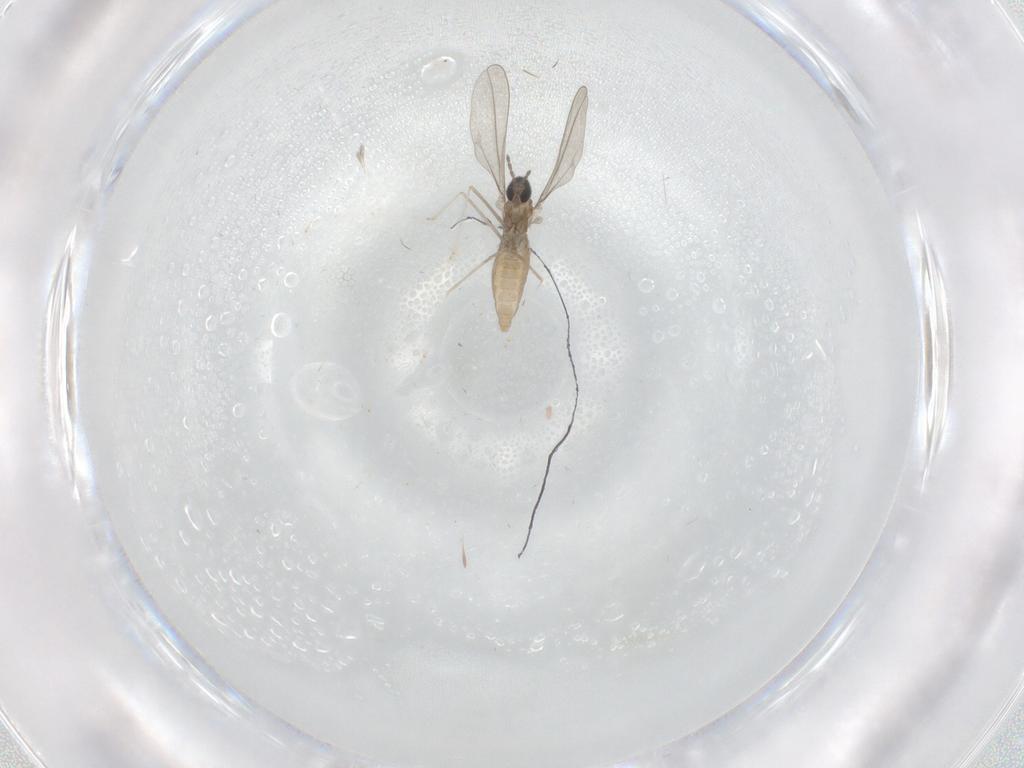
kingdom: Animalia
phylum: Arthropoda
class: Insecta
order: Diptera
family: Cecidomyiidae
